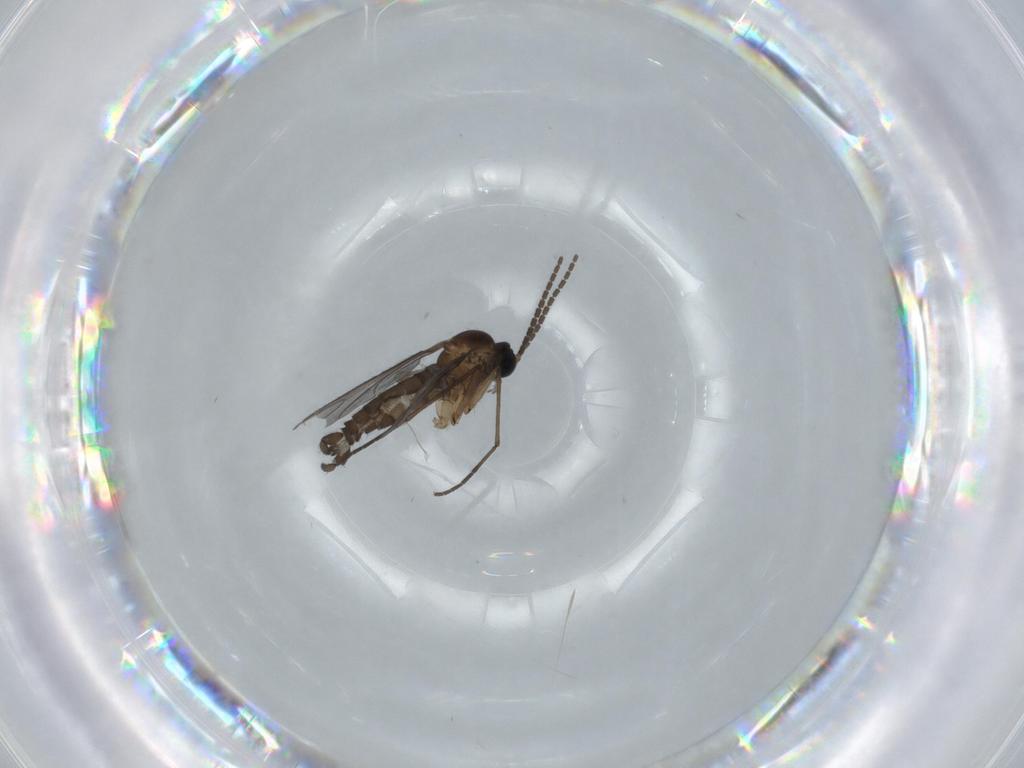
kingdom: Animalia
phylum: Arthropoda
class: Insecta
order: Diptera
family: Sciaridae
